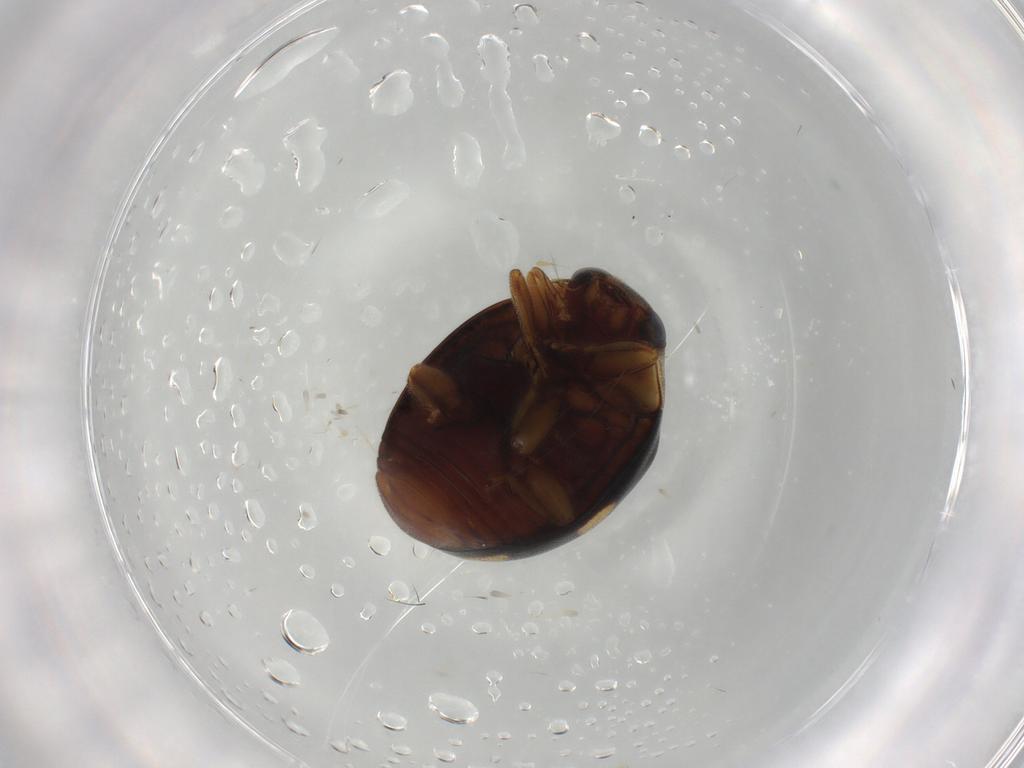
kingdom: Animalia
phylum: Arthropoda
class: Insecta
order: Coleoptera
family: Coccinellidae
